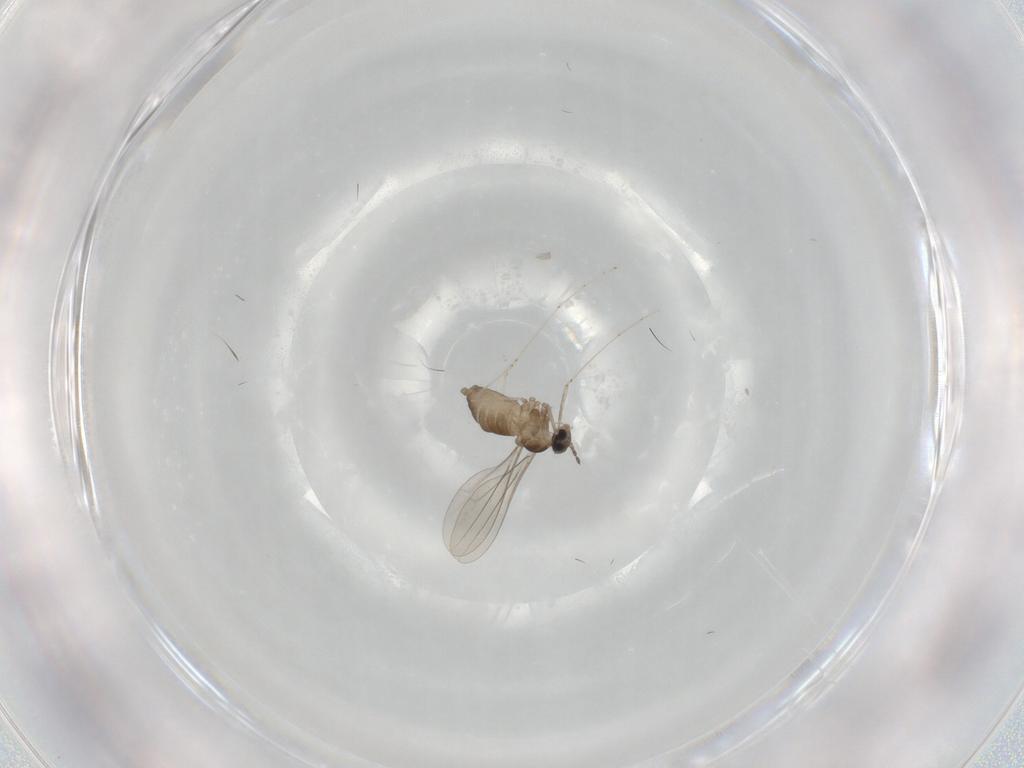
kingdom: Animalia
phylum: Arthropoda
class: Insecta
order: Diptera
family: Cecidomyiidae
